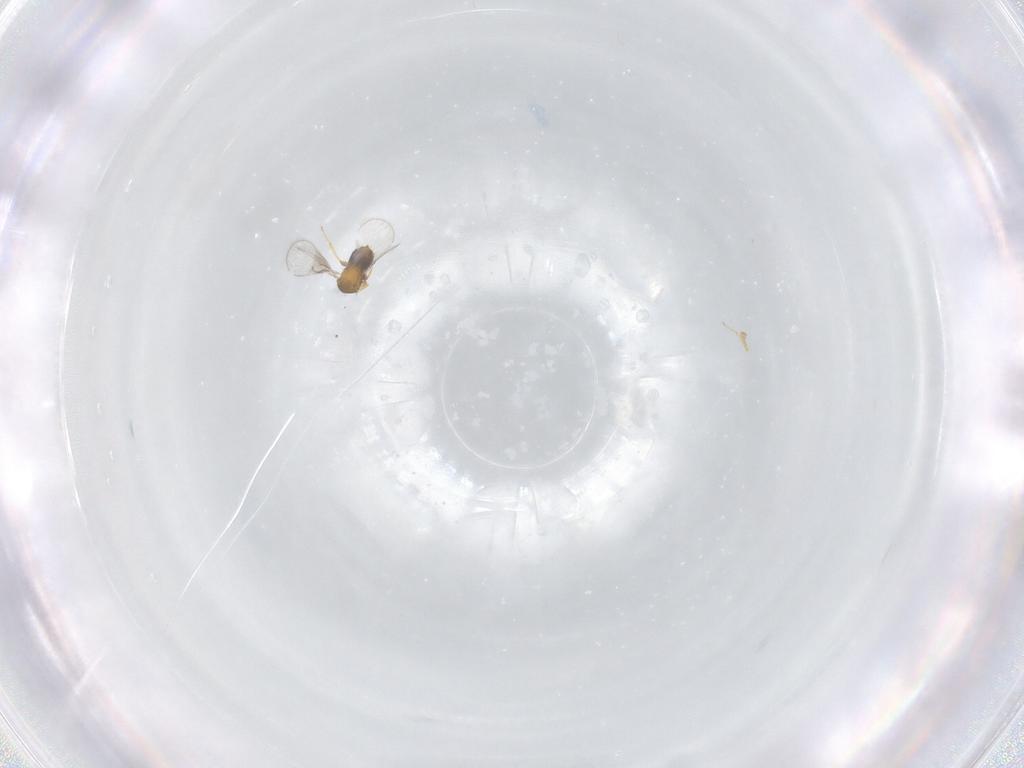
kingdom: Animalia
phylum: Arthropoda
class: Insecta
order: Hymenoptera
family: Trichogrammatidae
